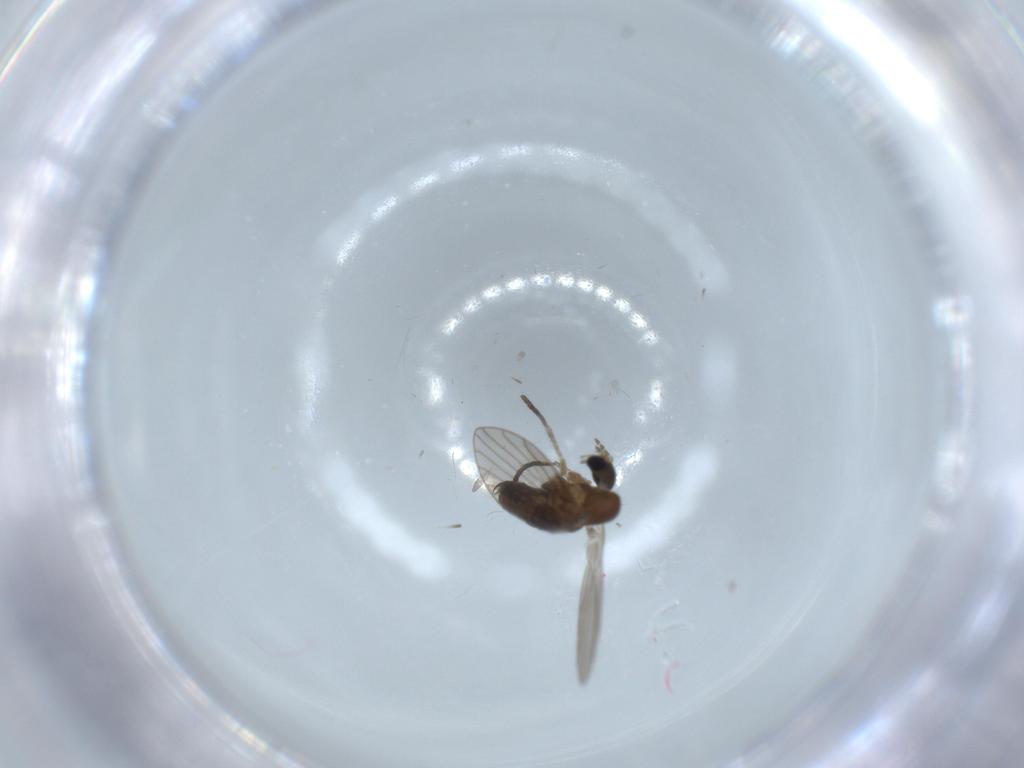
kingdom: Animalia
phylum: Arthropoda
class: Insecta
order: Diptera
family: Psychodidae
